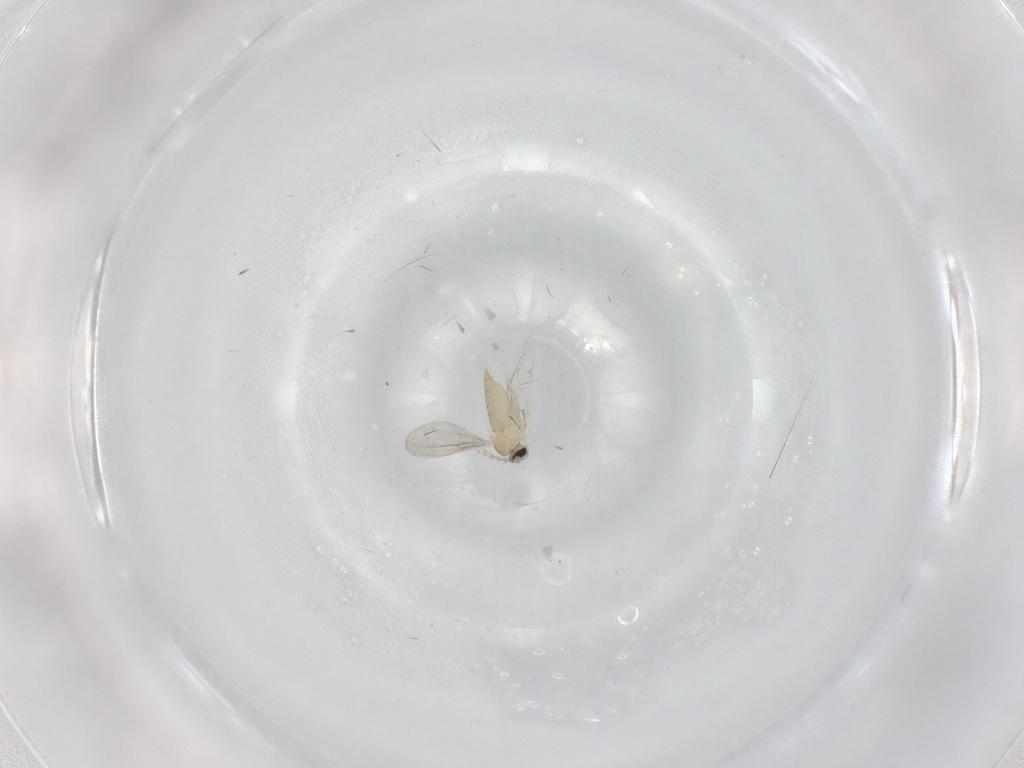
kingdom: Animalia
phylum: Arthropoda
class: Insecta
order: Diptera
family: Cecidomyiidae
